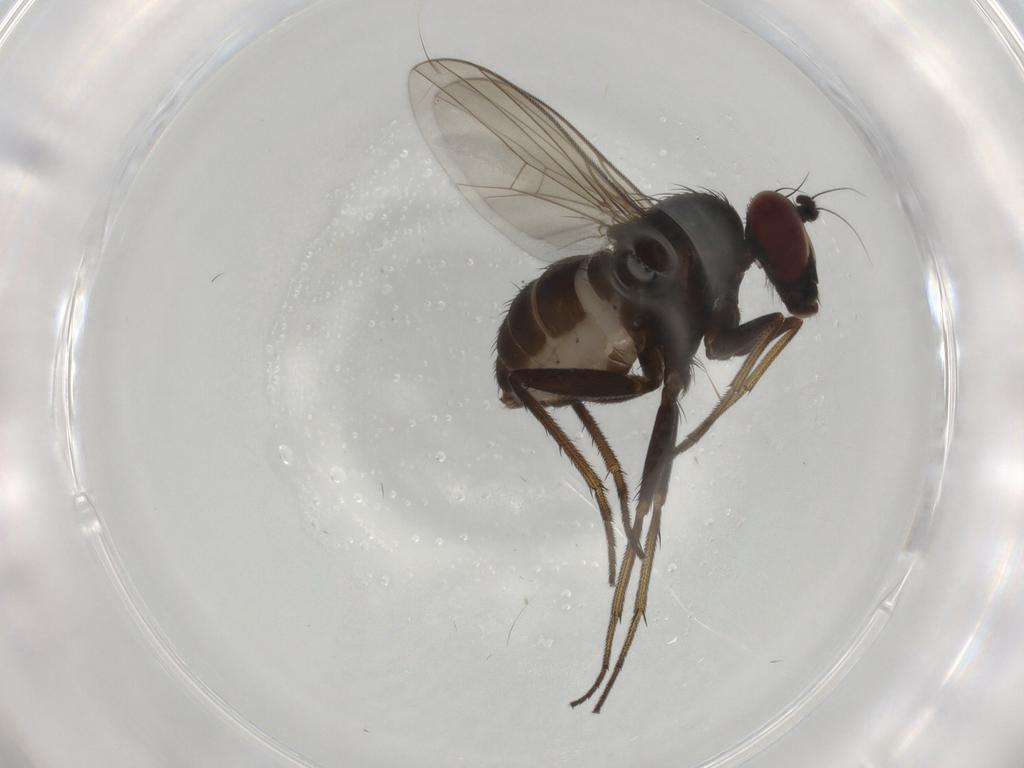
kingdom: Animalia
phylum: Arthropoda
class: Insecta
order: Diptera
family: Dolichopodidae
